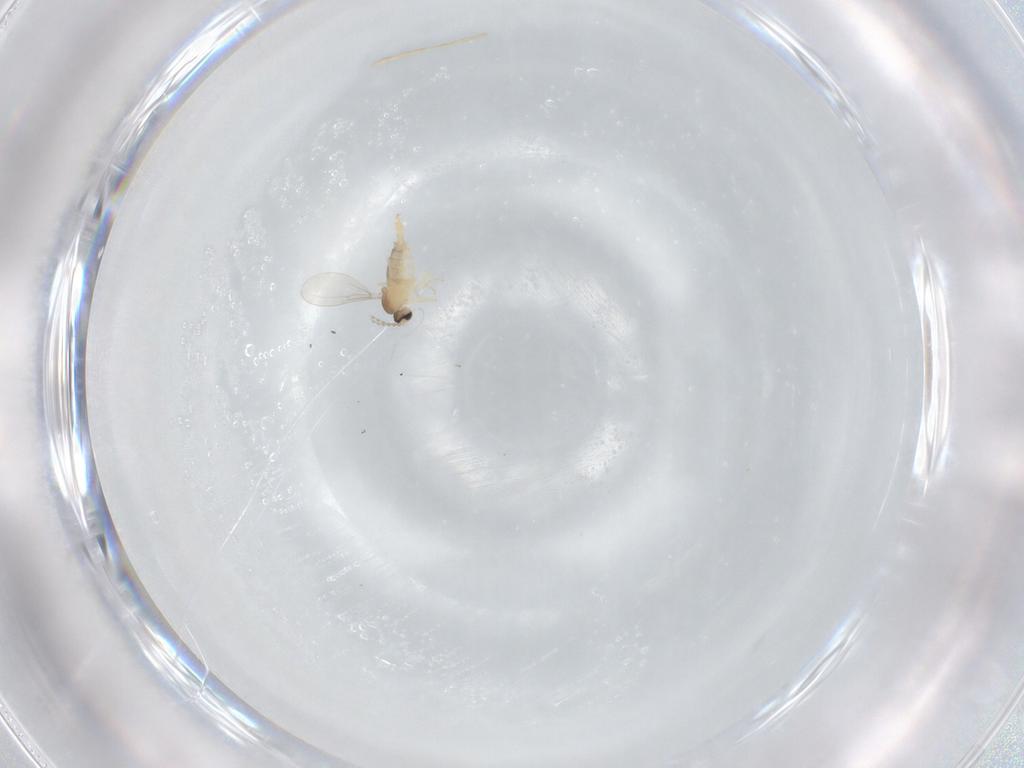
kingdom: Animalia
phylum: Arthropoda
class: Insecta
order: Diptera
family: Cecidomyiidae
